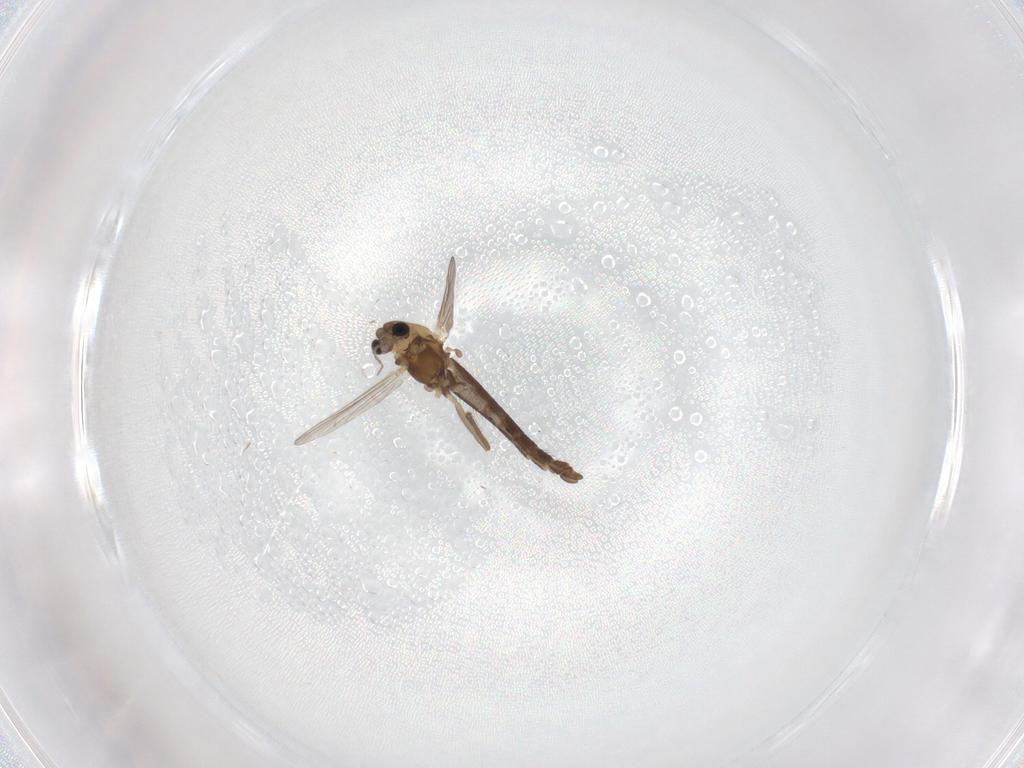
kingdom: Animalia
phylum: Arthropoda
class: Insecta
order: Diptera
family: Chironomidae
